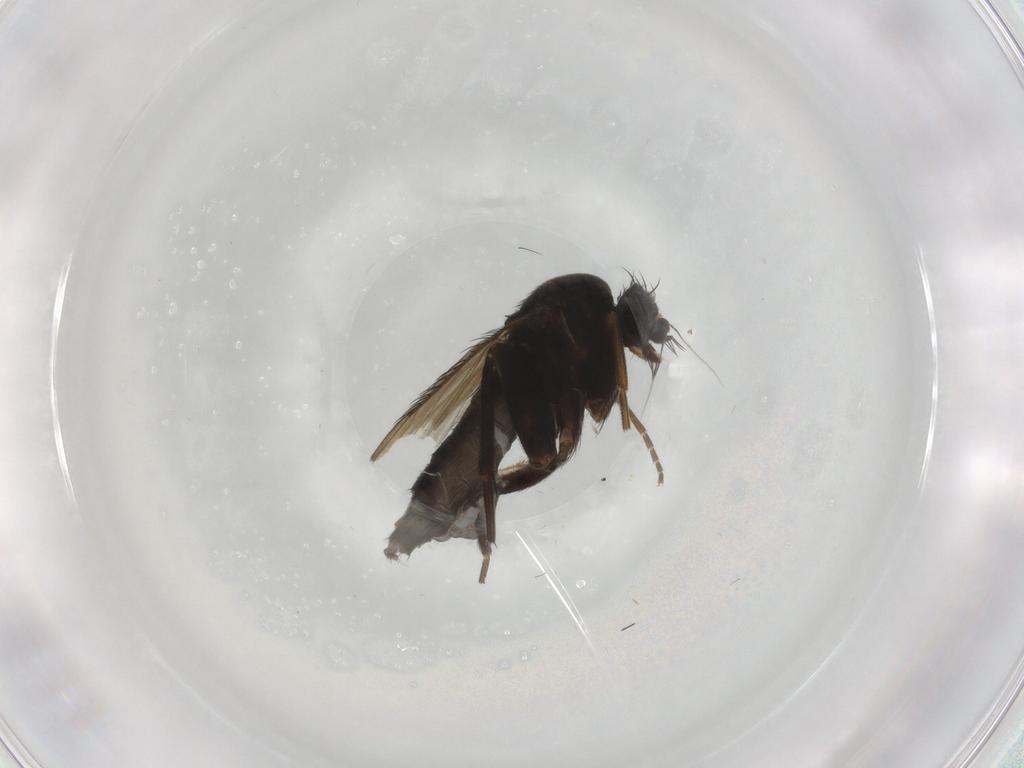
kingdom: Animalia
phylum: Arthropoda
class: Insecta
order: Diptera
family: Phoridae
